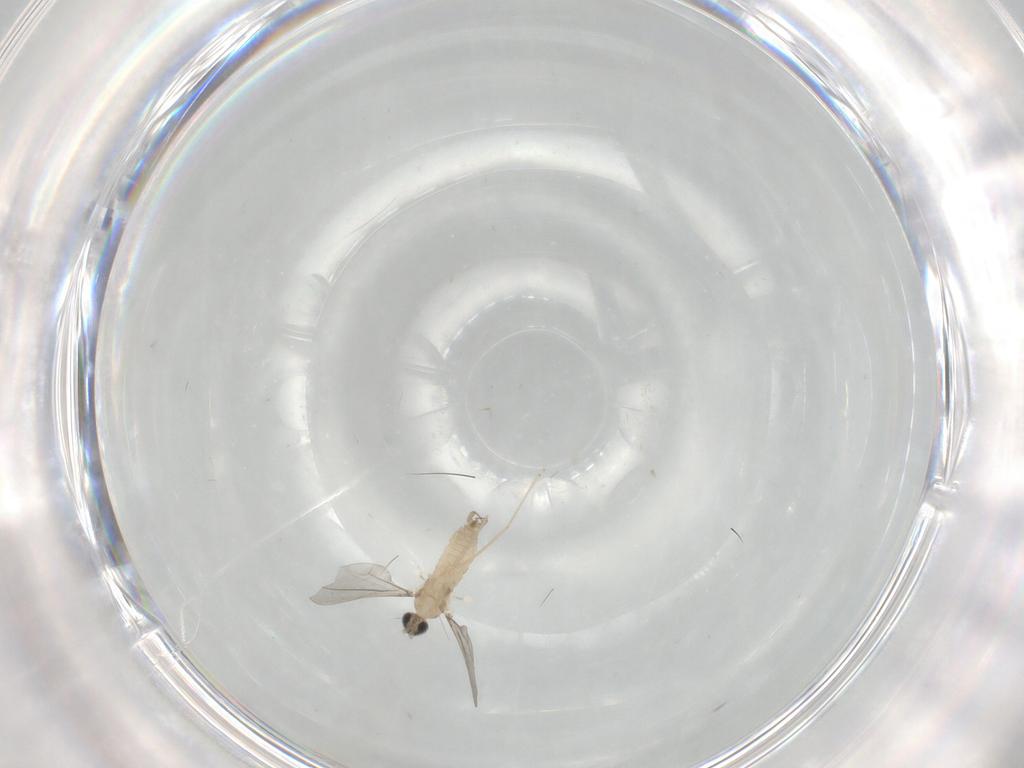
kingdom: Animalia
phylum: Arthropoda
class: Insecta
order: Diptera
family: Cecidomyiidae
